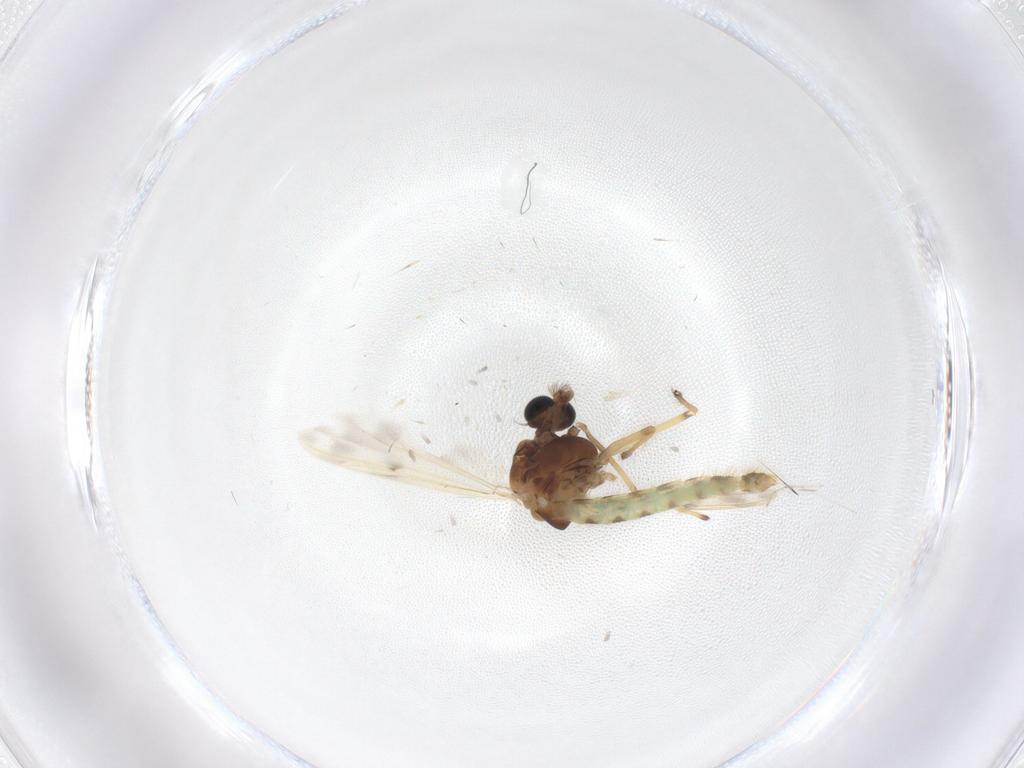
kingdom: Animalia
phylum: Arthropoda
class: Insecta
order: Diptera
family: Chironomidae
